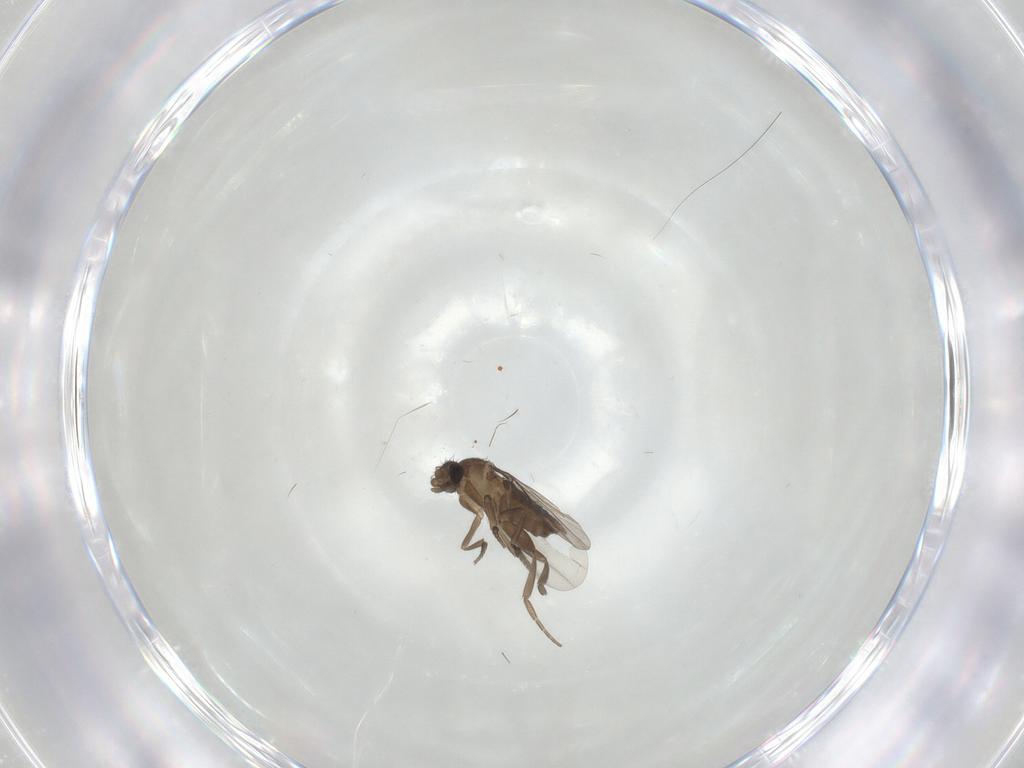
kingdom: Animalia
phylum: Arthropoda
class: Insecta
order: Diptera
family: Phoridae
